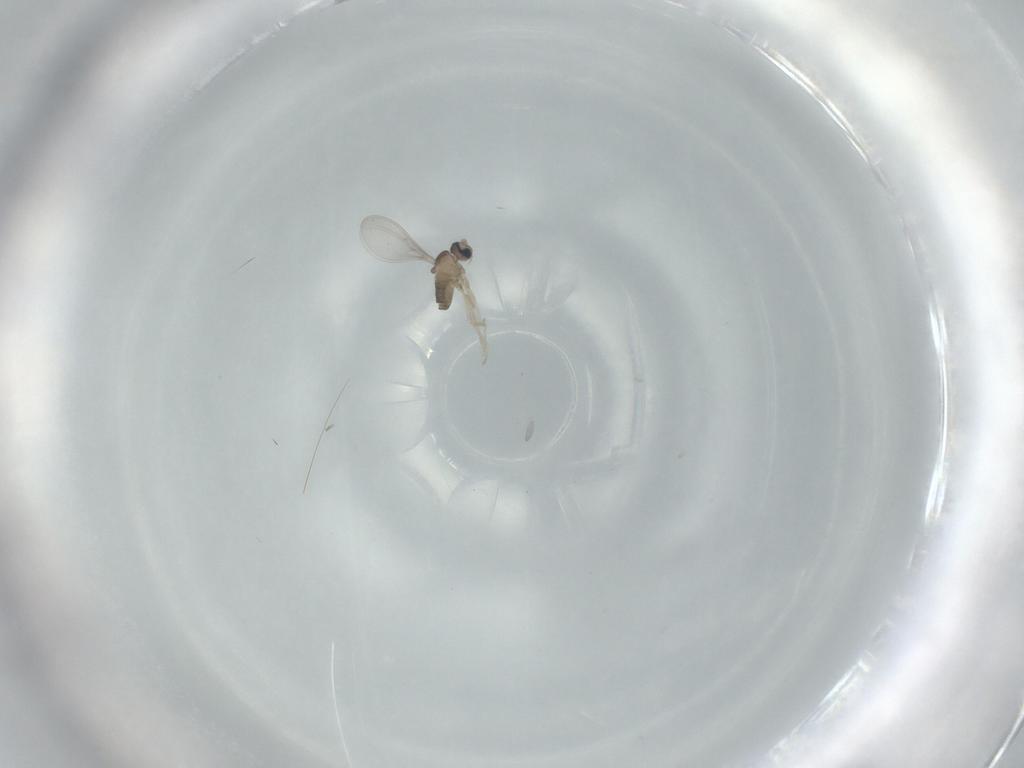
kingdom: Animalia
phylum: Arthropoda
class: Insecta
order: Diptera
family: Cecidomyiidae
